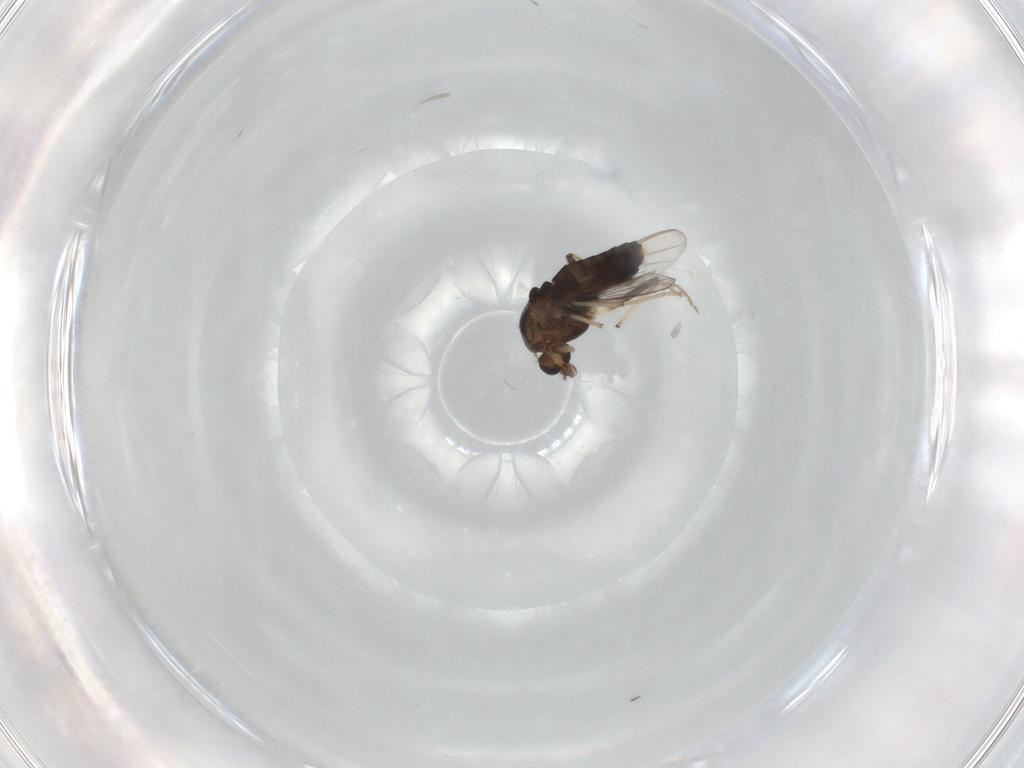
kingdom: Animalia
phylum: Arthropoda
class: Insecta
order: Diptera
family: Chironomidae
